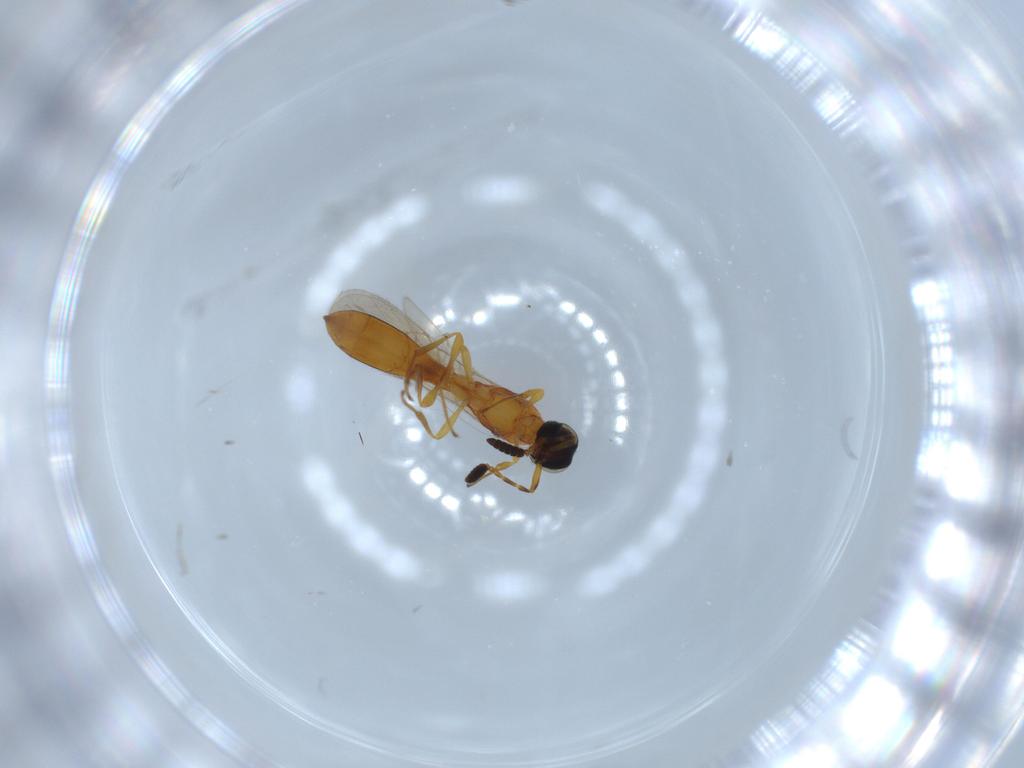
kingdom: Animalia
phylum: Arthropoda
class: Insecta
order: Hymenoptera
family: Scelionidae
